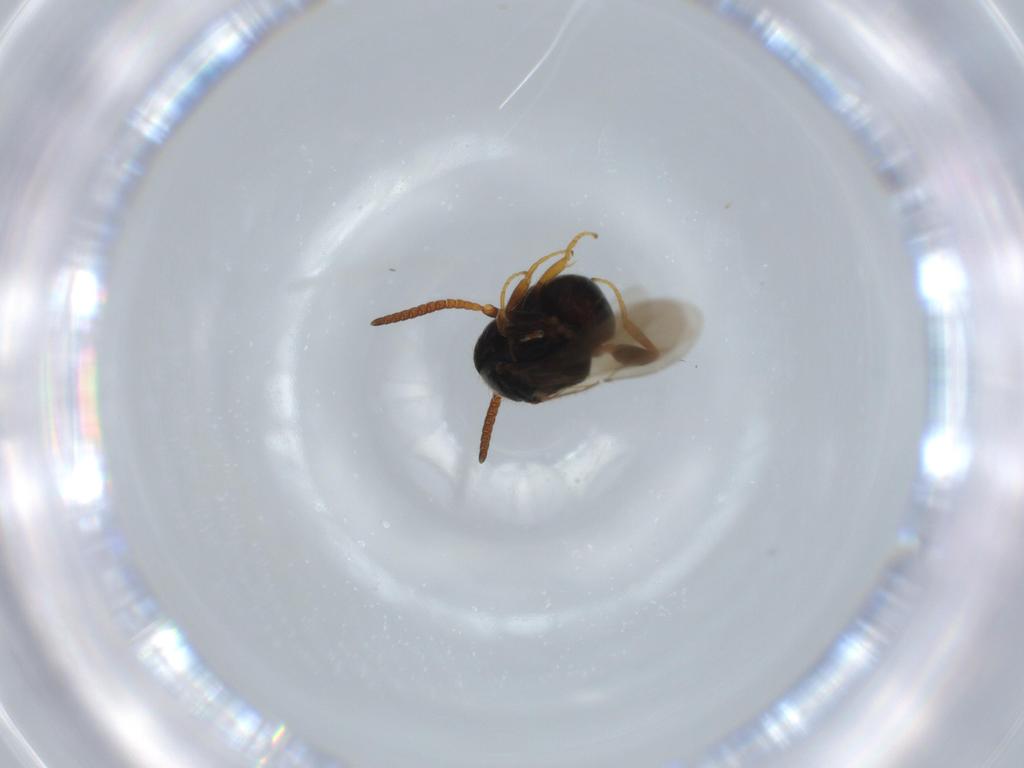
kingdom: Animalia
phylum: Arthropoda
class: Insecta
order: Hymenoptera
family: Bethylidae
